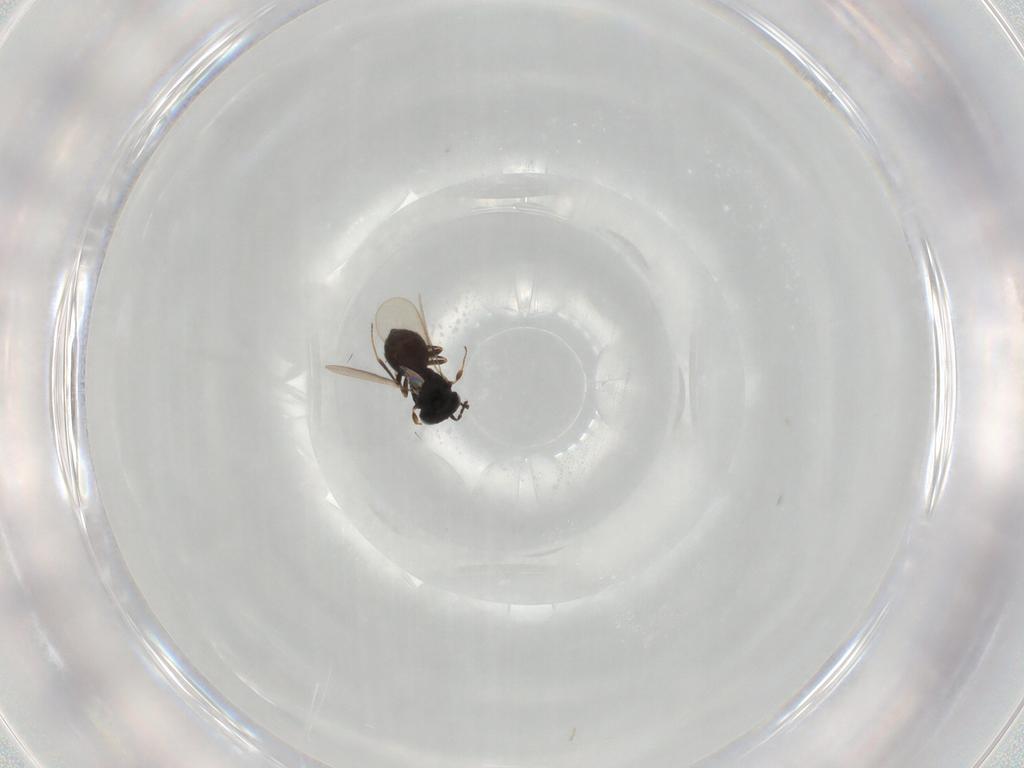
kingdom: Animalia
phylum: Arthropoda
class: Insecta
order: Hymenoptera
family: Scelionidae
